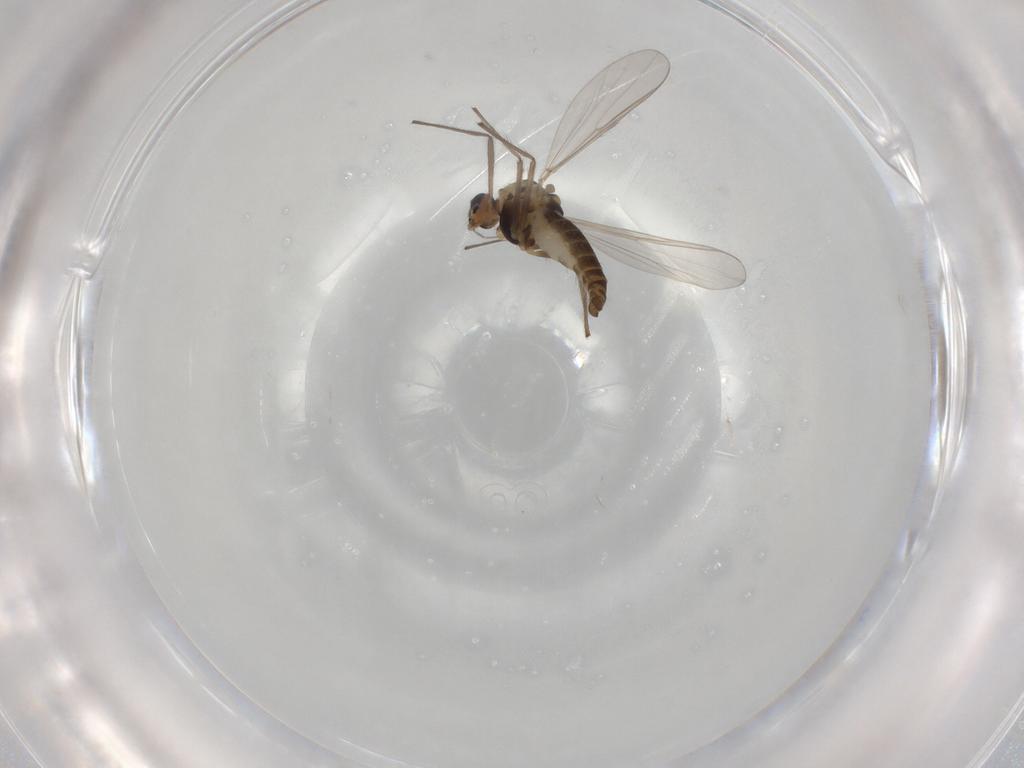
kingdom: Animalia
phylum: Arthropoda
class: Insecta
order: Diptera
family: Chironomidae
